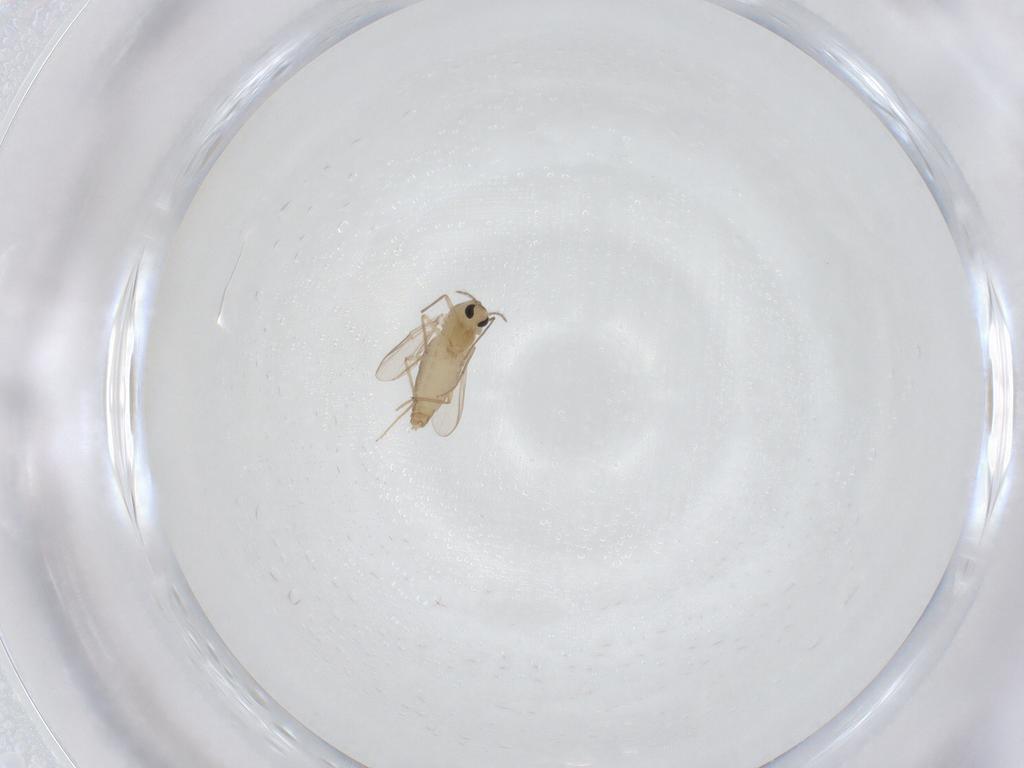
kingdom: Animalia
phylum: Arthropoda
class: Insecta
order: Diptera
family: Chironomidae
